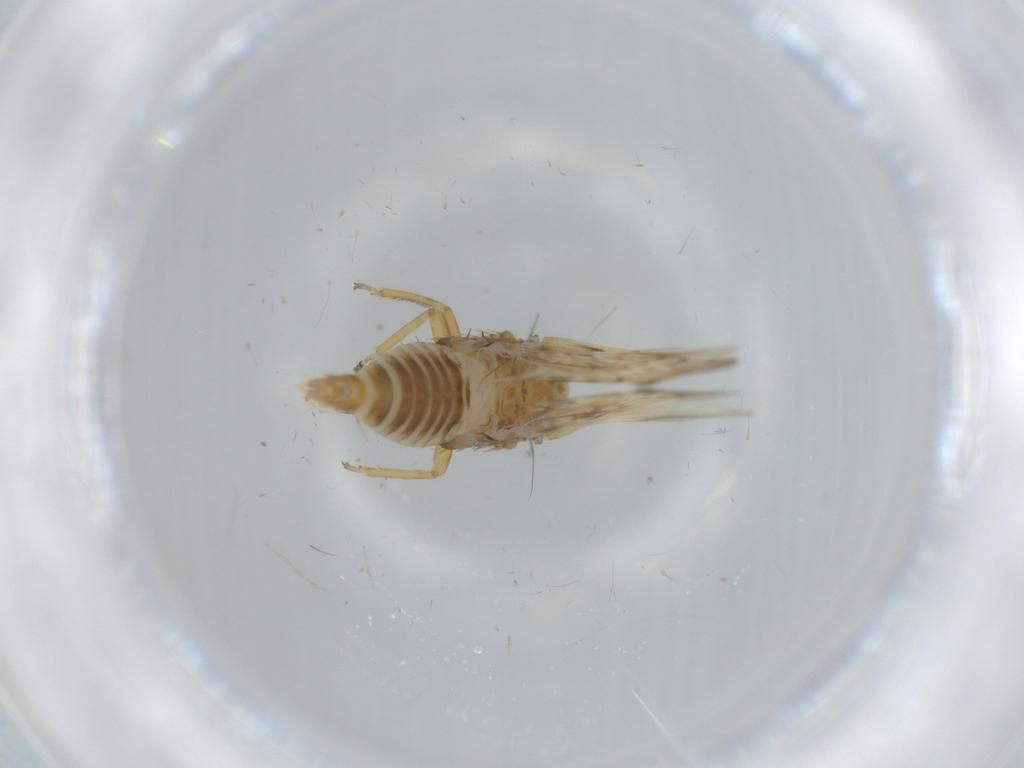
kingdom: Animalia
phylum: Arthropoda
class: Insecta
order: Hemiptera
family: Cicadellidae
